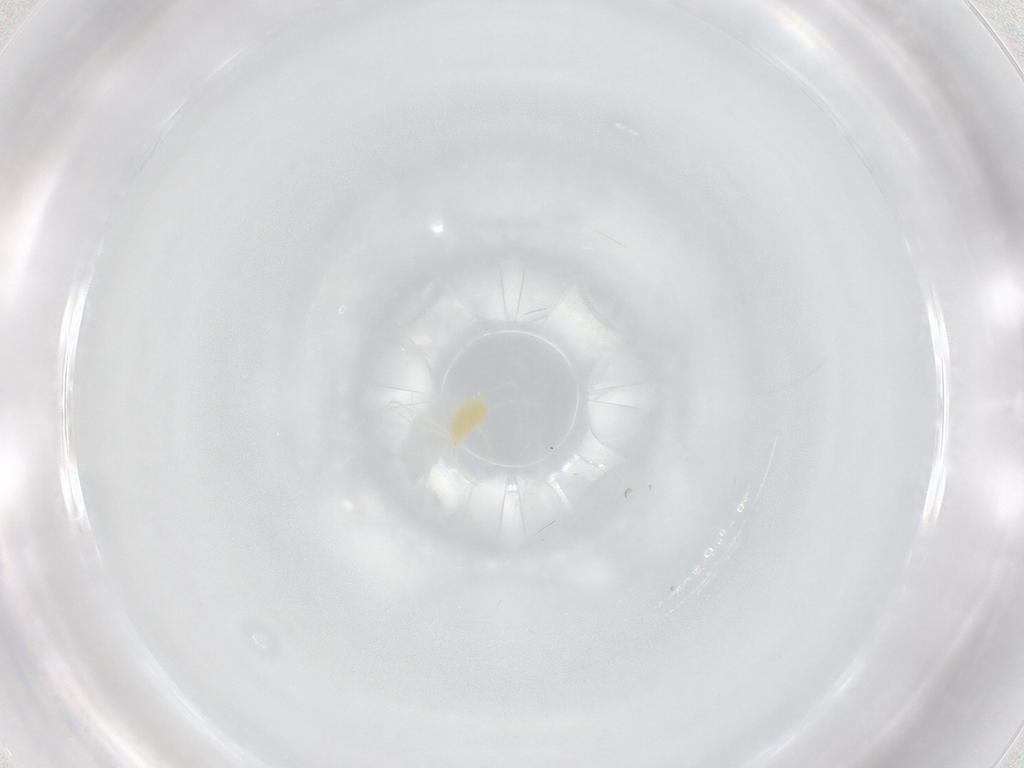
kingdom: Animalia
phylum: Arthropoda
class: Arachnida
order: Trombidiformes
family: Tetranychidae
